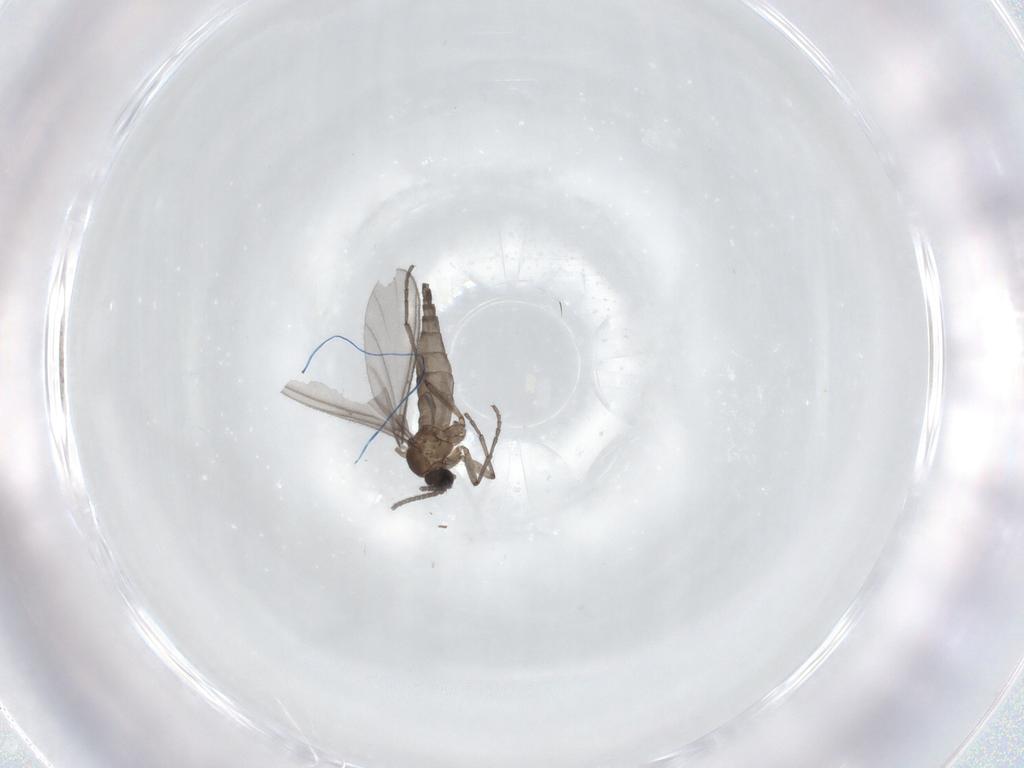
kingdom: Animalia
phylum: Arthropoda
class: Insecta
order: Diptera
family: Sciaridae
